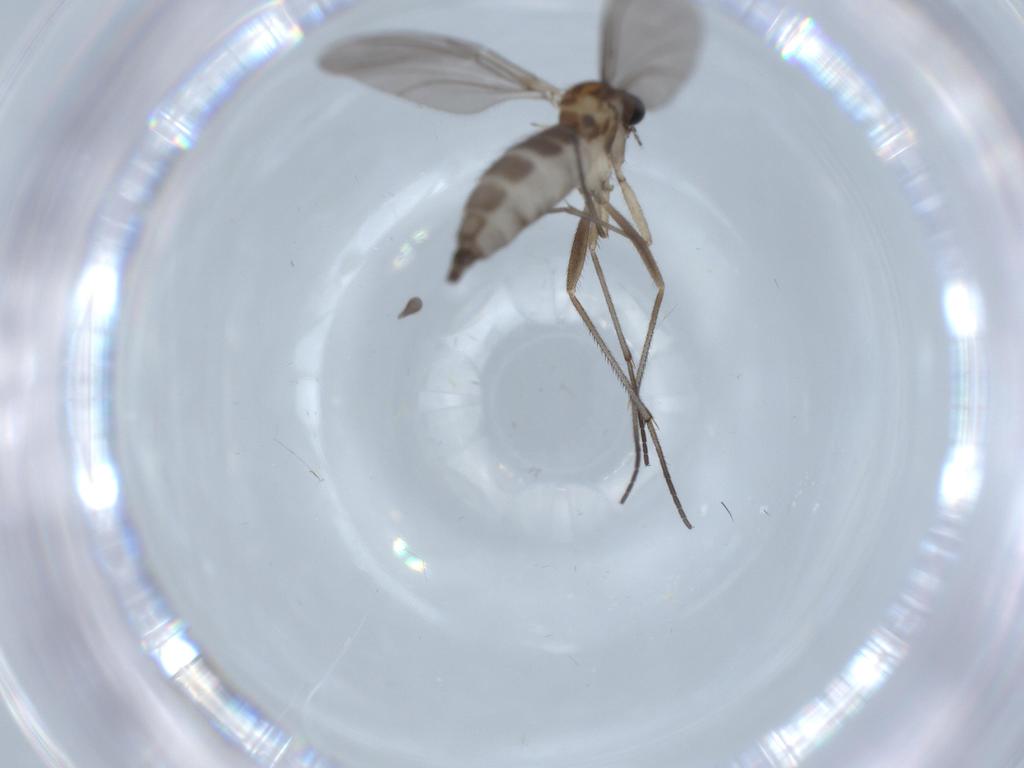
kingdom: Animalia
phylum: Arthropoda
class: Insecta
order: Diptera
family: Sciaridae
